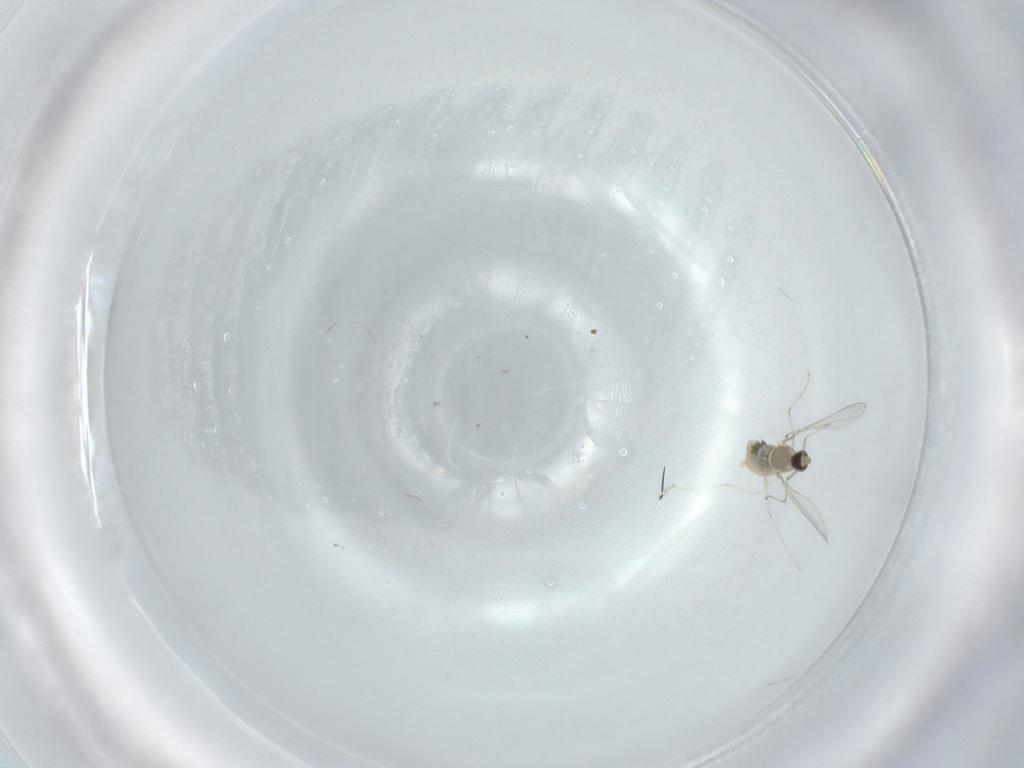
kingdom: Animalia
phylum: Arthropoda
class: Insecta
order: Diptera
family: Cecidomyiidae
